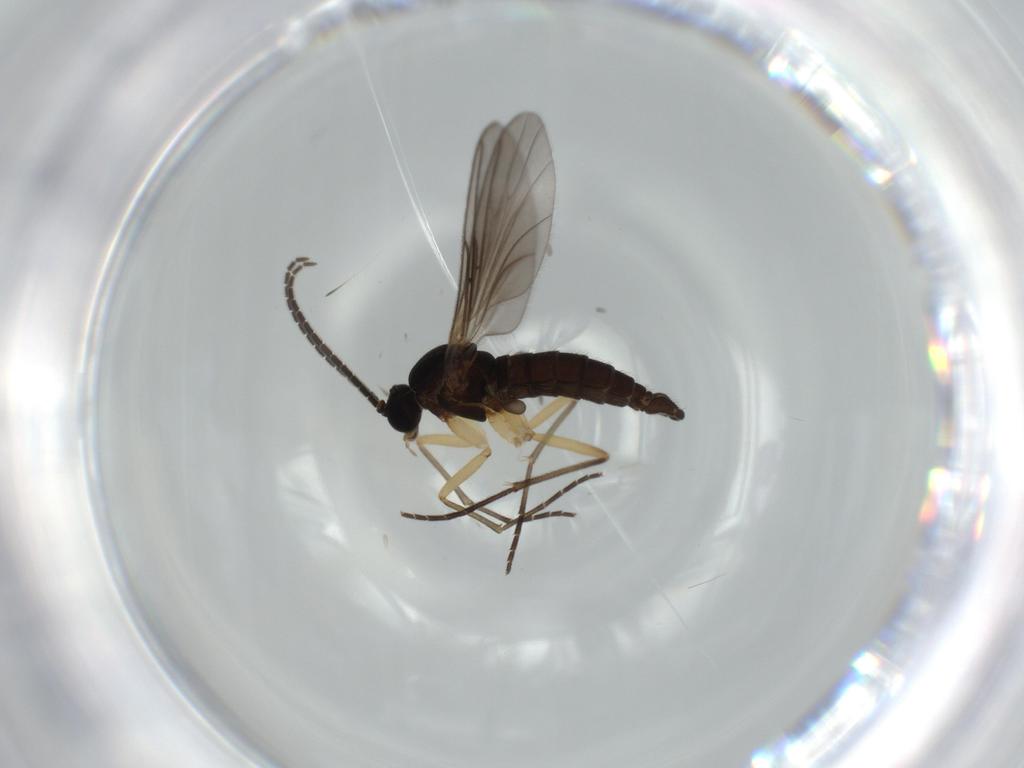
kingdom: Animalia
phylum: Arthropoda
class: Insecta
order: Diptera
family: Sciaridae
